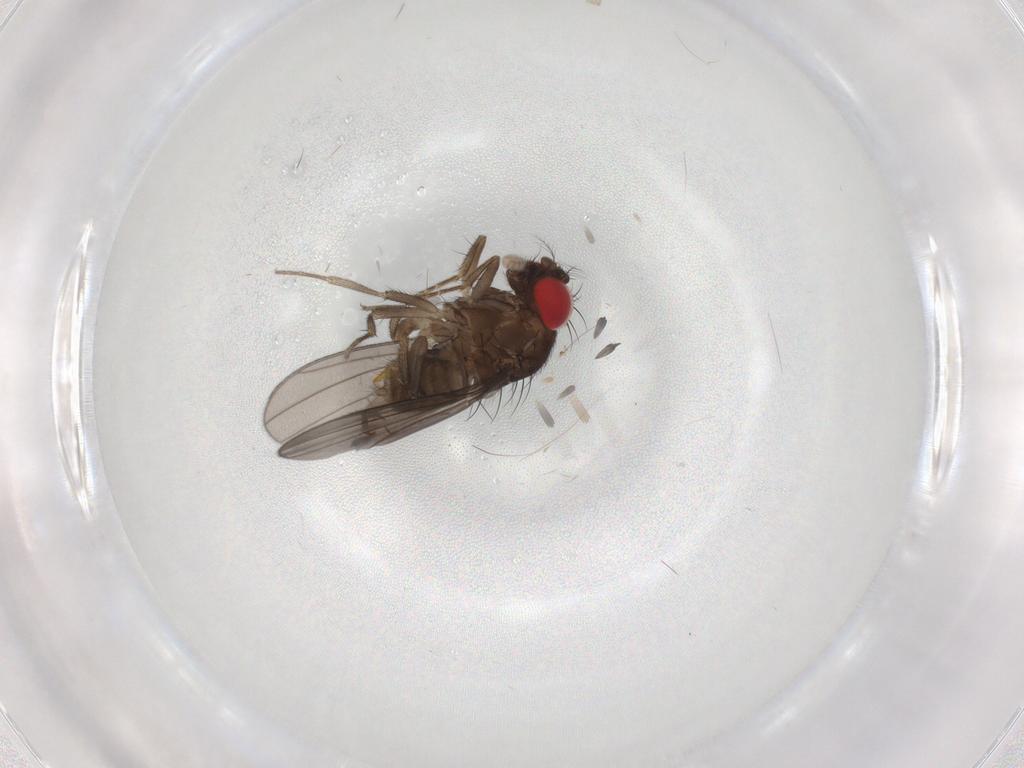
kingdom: Animalia
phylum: Arthropoda
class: Insecta
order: Diptera
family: Drosophilidae
